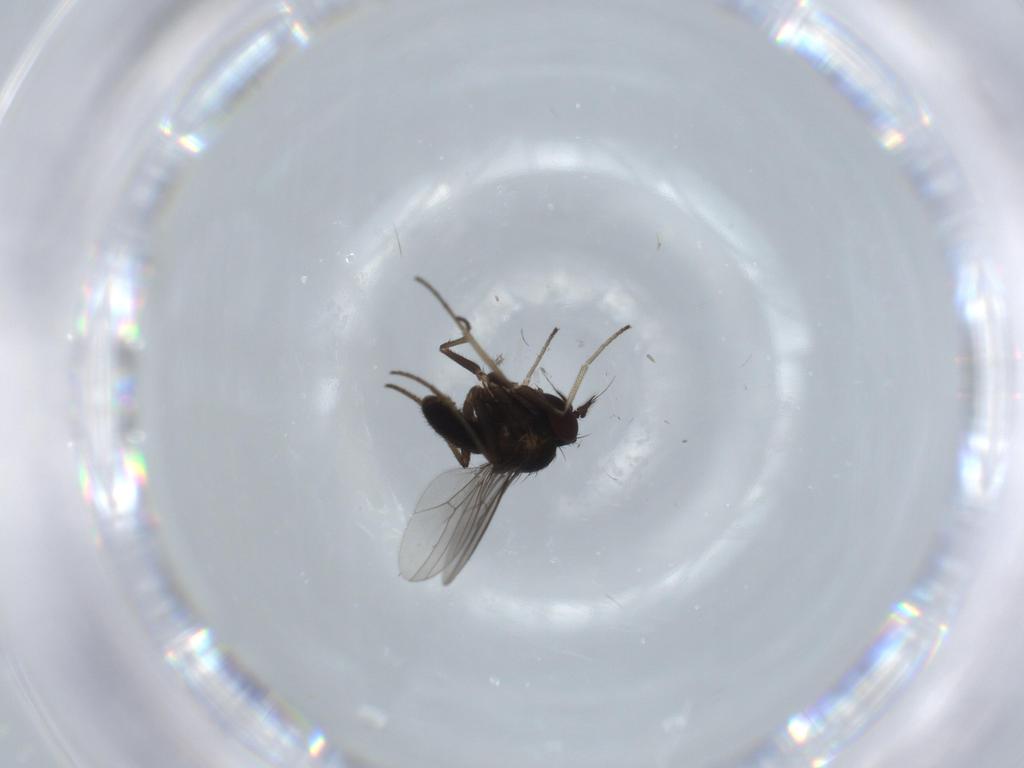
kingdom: Animalia
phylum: Arthropoda
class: Insecta
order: Diptera
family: Dolichopodidae
